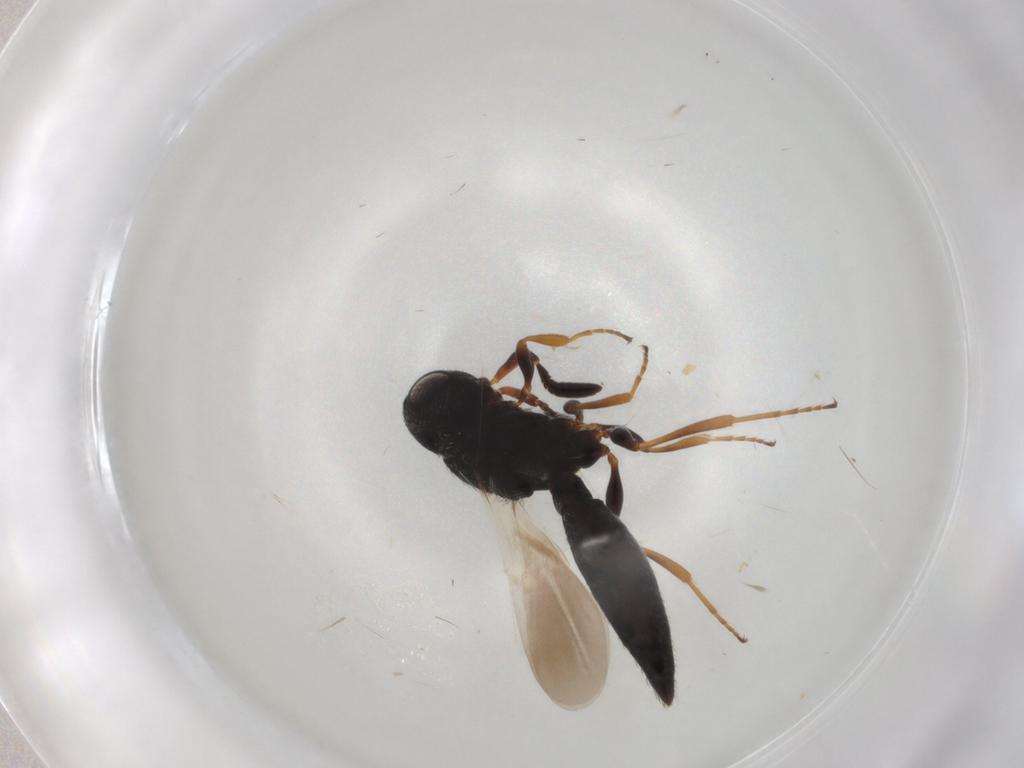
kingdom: Animalia
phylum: Arthropoda
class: Insecta
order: Hymenoptera
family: Scelionidae
